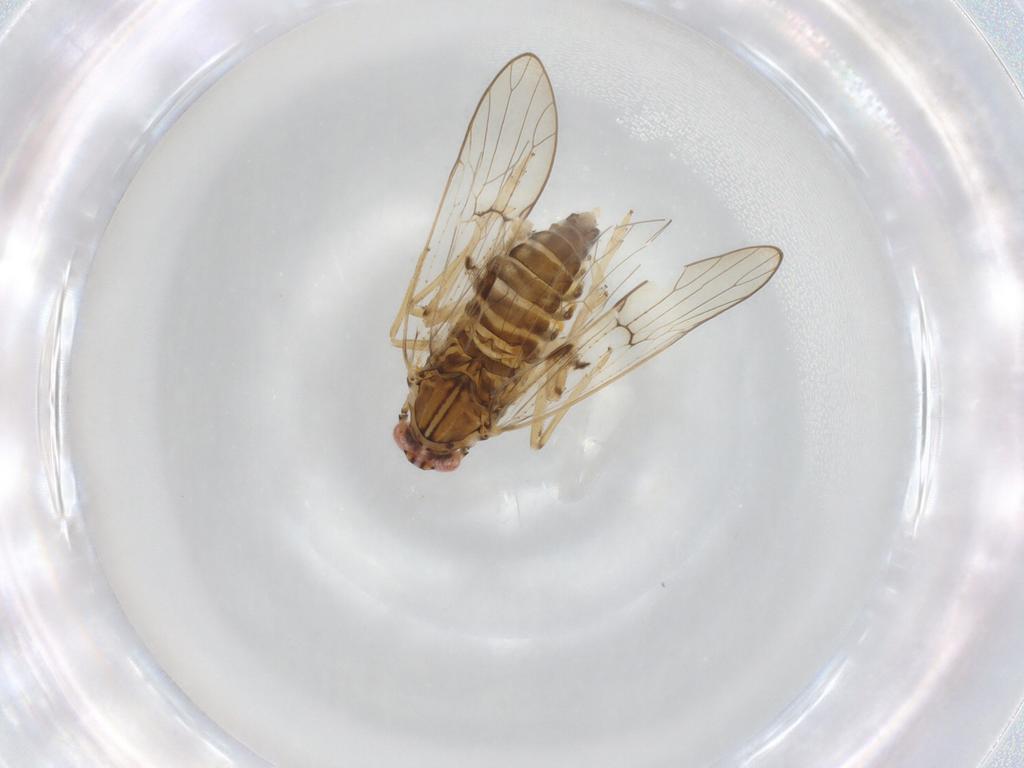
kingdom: Animalia
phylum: Arthropoda
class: Insecta
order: Hemiptera
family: Delphacidae
